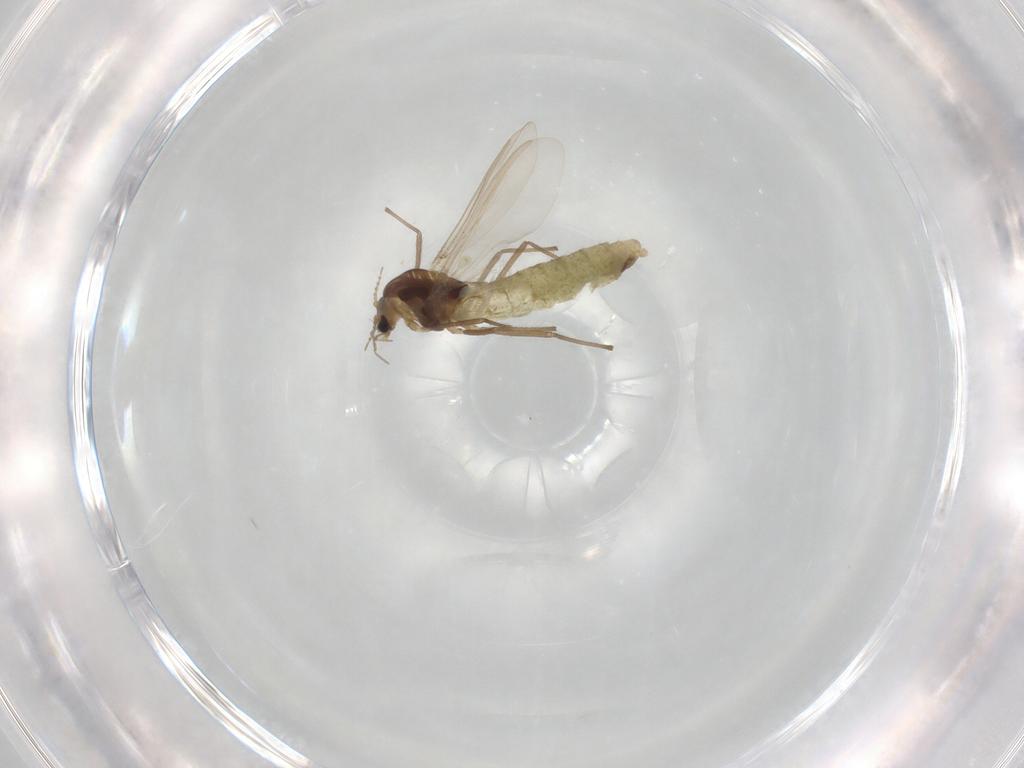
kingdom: Animalia
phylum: Arthropoda
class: Insecta
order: Diptera
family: Chironomidae
